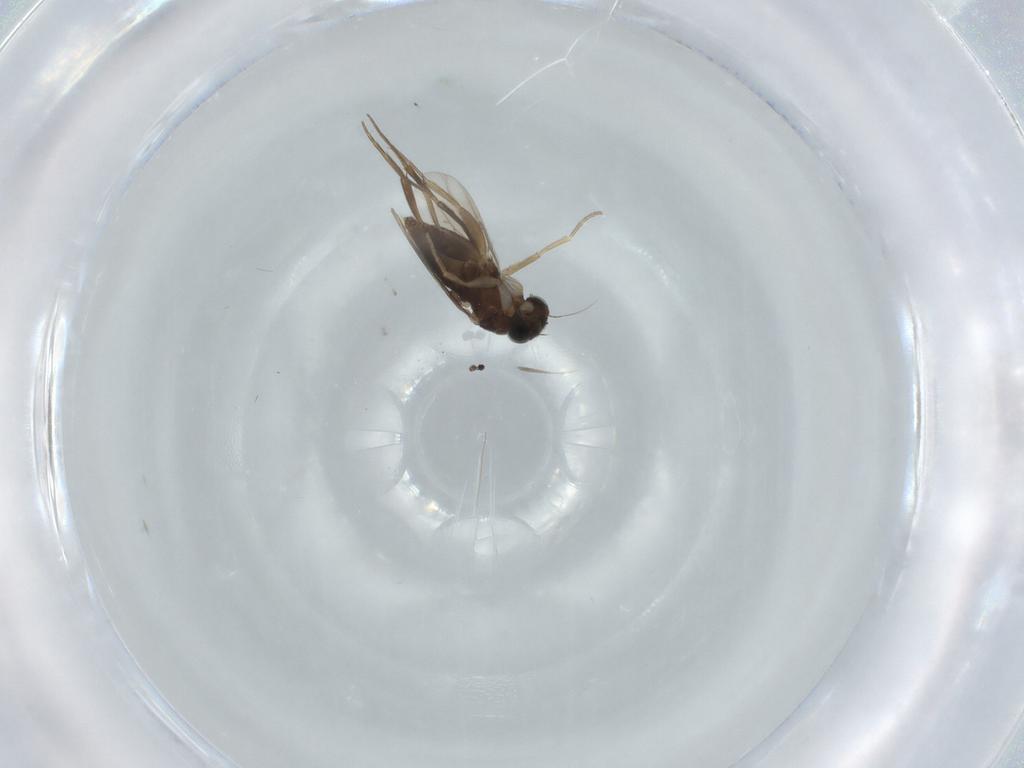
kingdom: Animalia
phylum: Arthropoda
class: Insecta
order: Diptera
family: Phoridae
